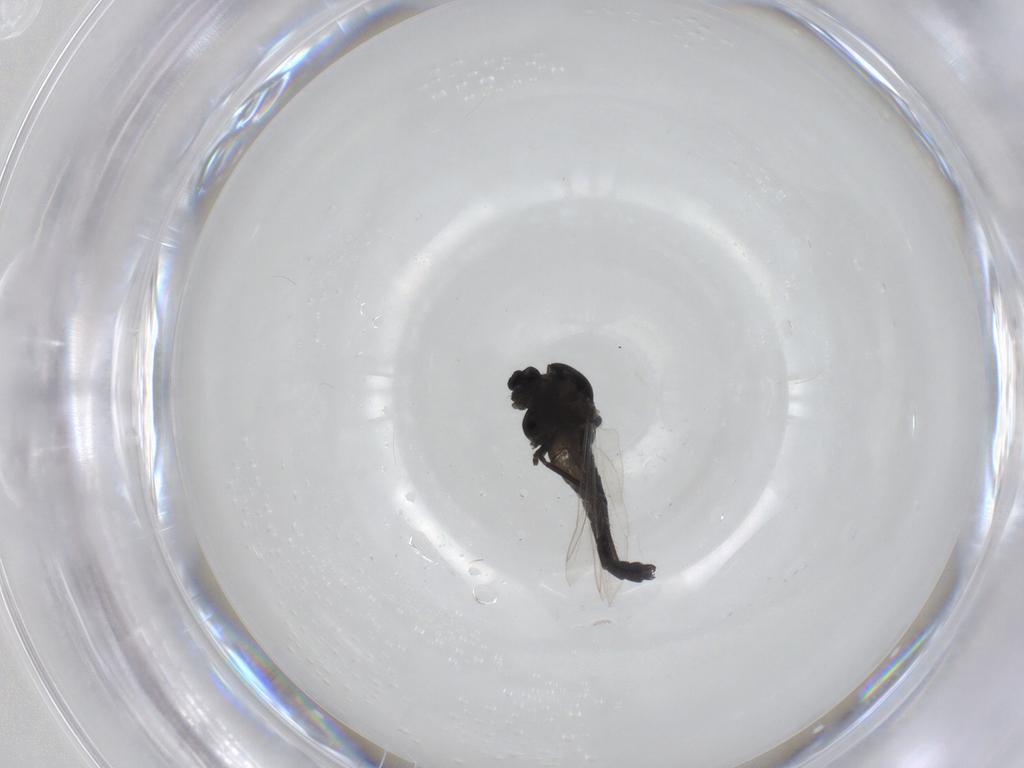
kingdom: Animalia
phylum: Arthropoda
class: Insecta
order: Diptera
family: Chironomidae
